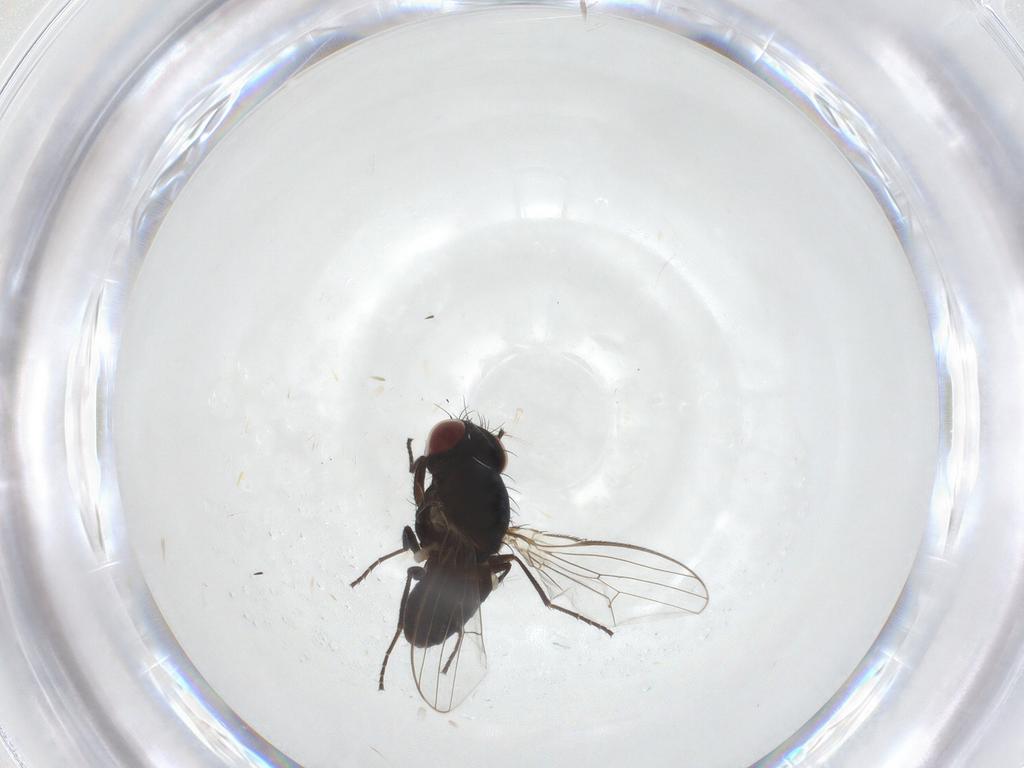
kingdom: Animalia
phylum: Arthropoda
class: Insecta
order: Diptera
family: Carnidae
